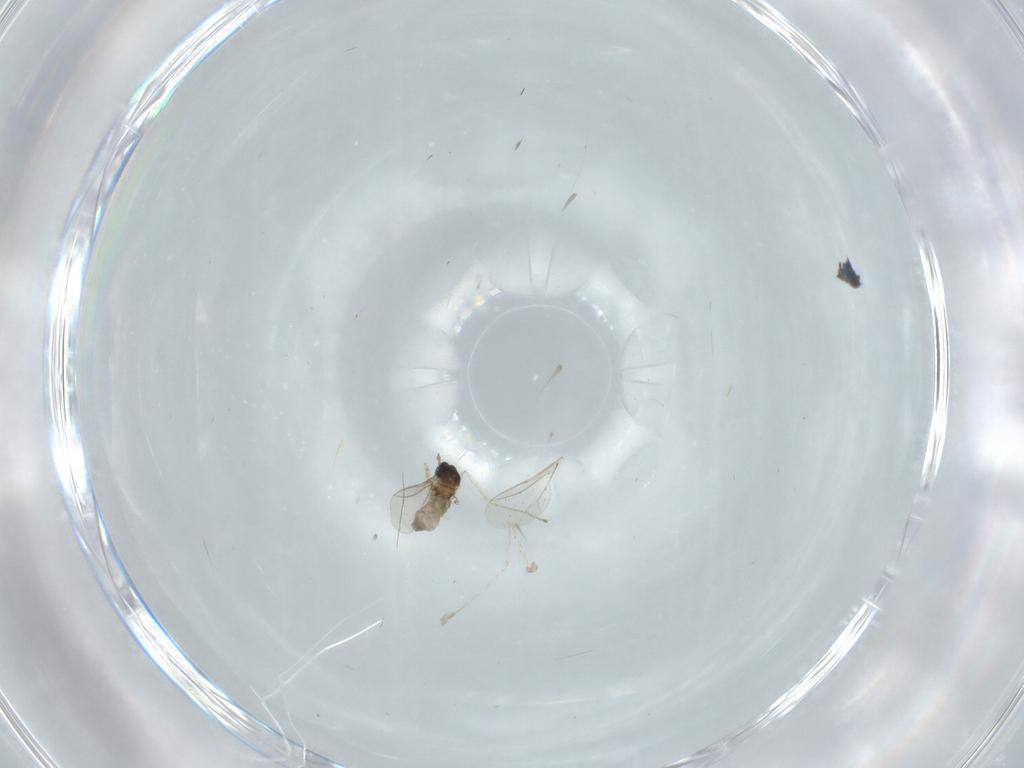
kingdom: Animalia
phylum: Arthropoda
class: Insecta
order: Diptera
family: Cecidomyiidae
